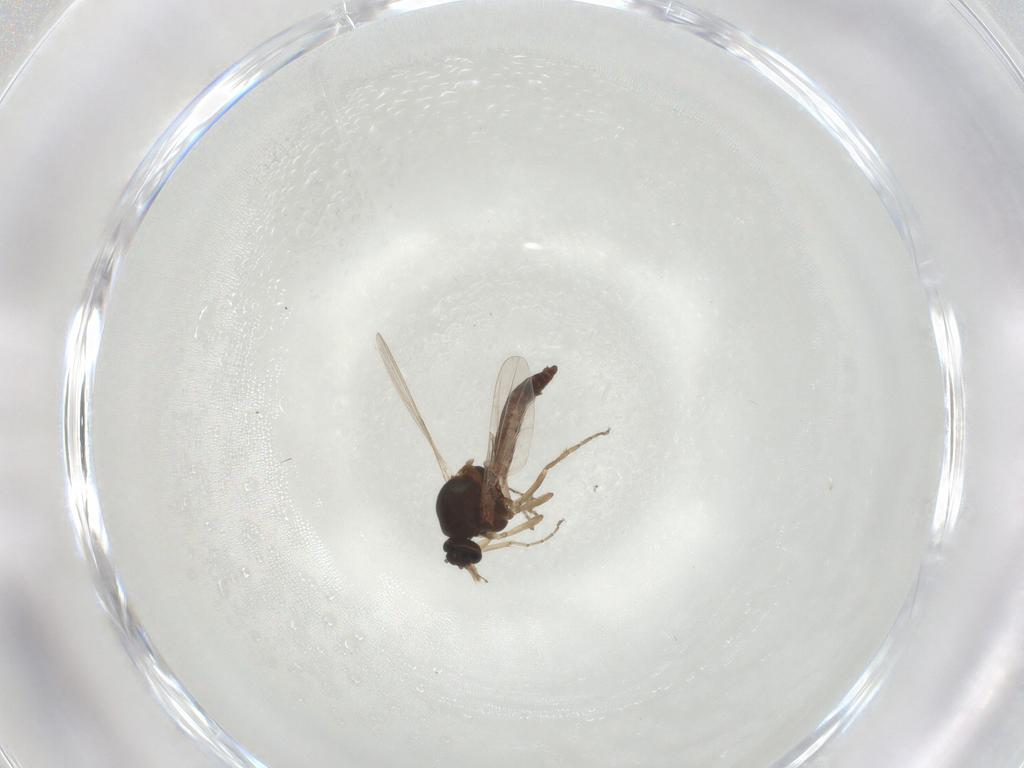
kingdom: Animalia
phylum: Arthropoda
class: Insecta
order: Diptera
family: Ceratopogonidae
